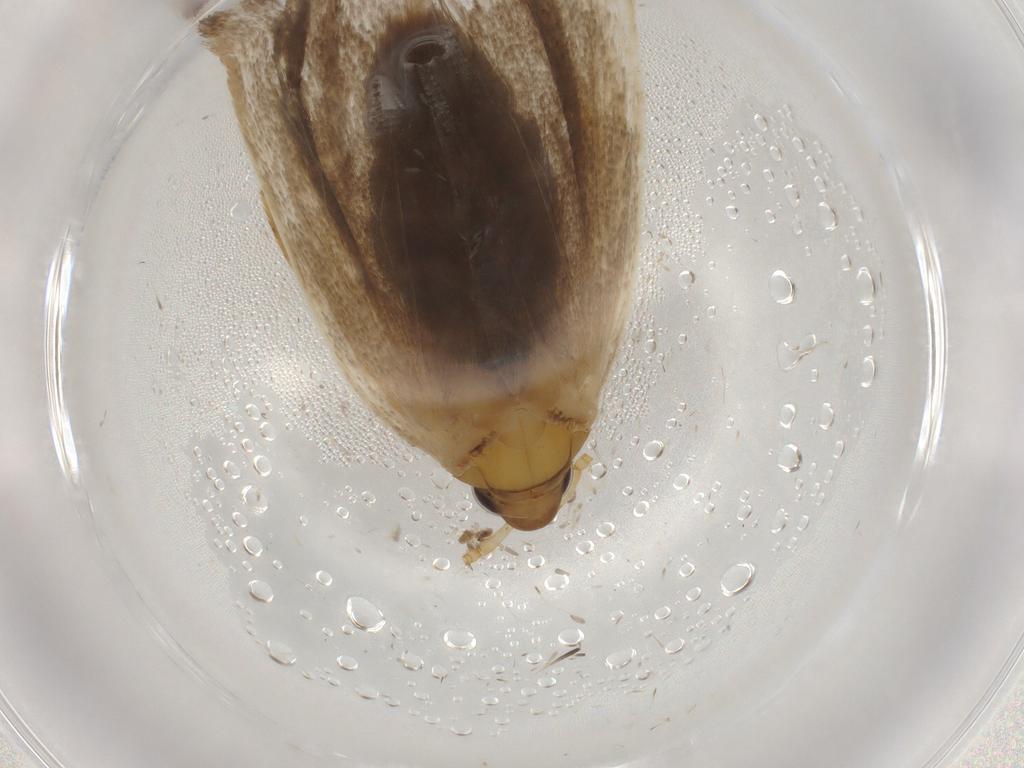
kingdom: Animalia
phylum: Arthropoda
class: Insecta
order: Lepidoptera
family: Lecithoceridae
